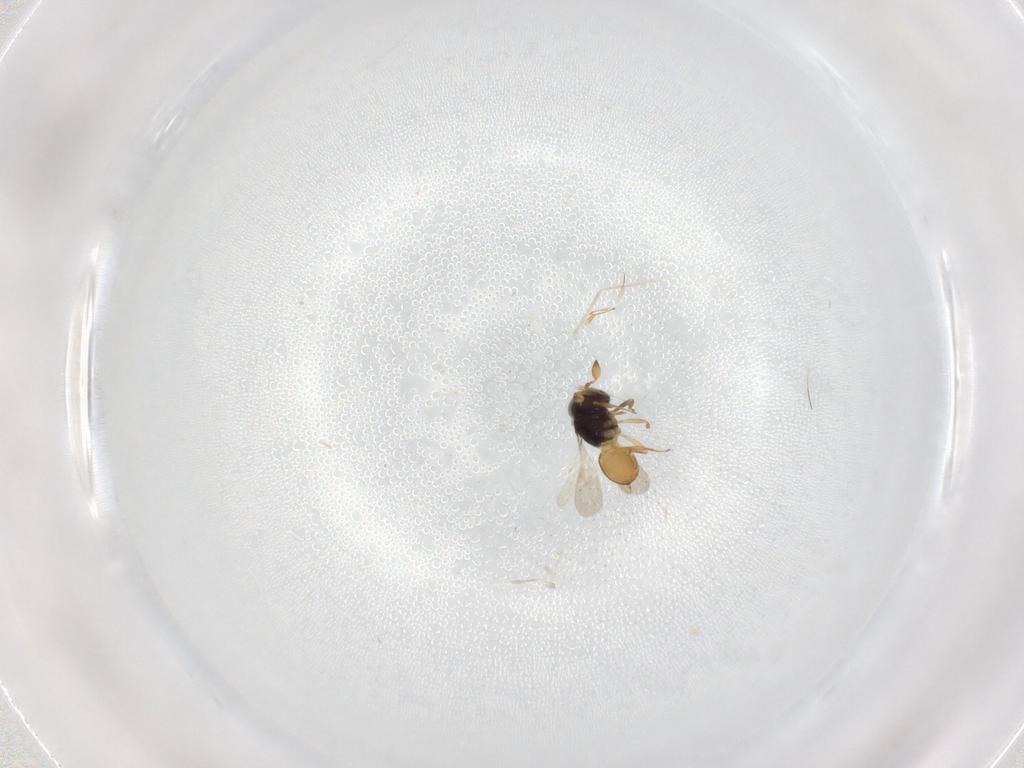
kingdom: Animalia
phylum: Arthropoda
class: Insecta
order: Hymenoptera
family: Scelionidae
